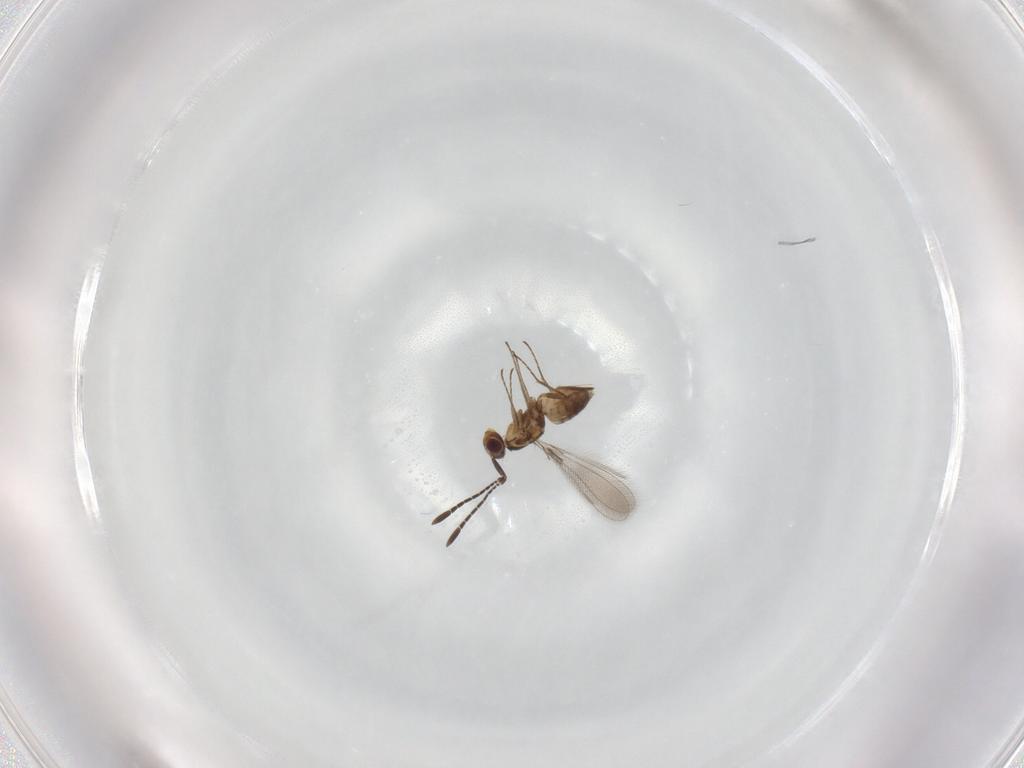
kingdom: Animalia
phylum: Arthropoda
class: Insecta
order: Hymenoptera
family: Mymaridae
